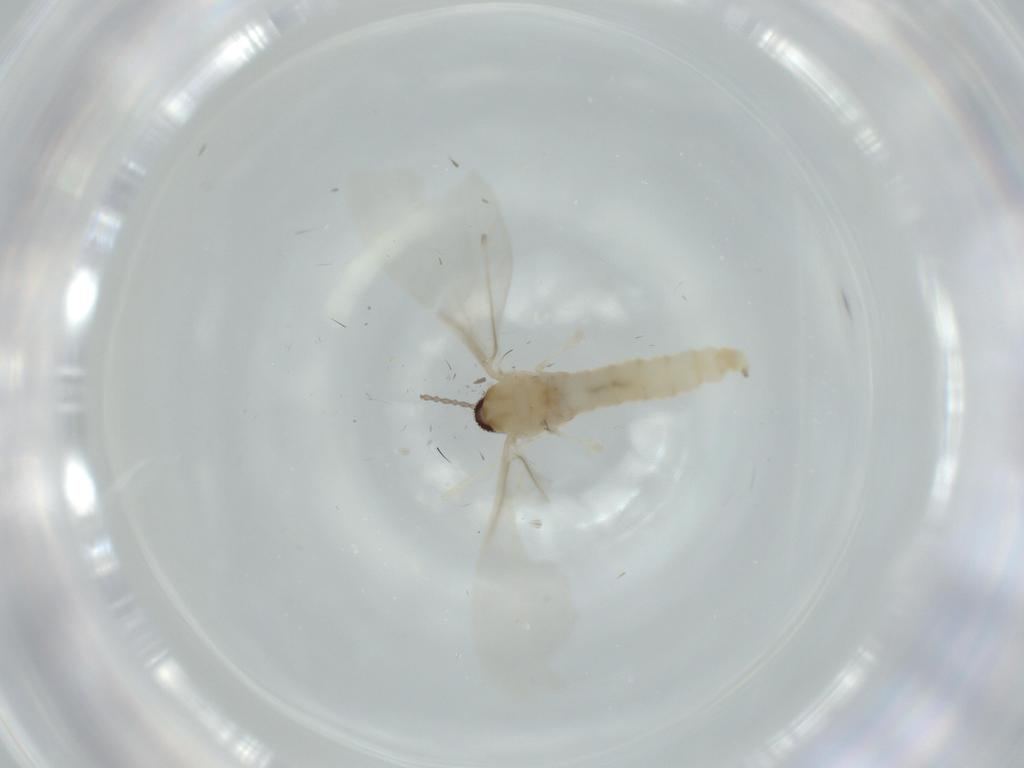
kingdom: Animalia
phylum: Arthropoda
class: Insecta
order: Diptera
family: Cecidomyiidae
